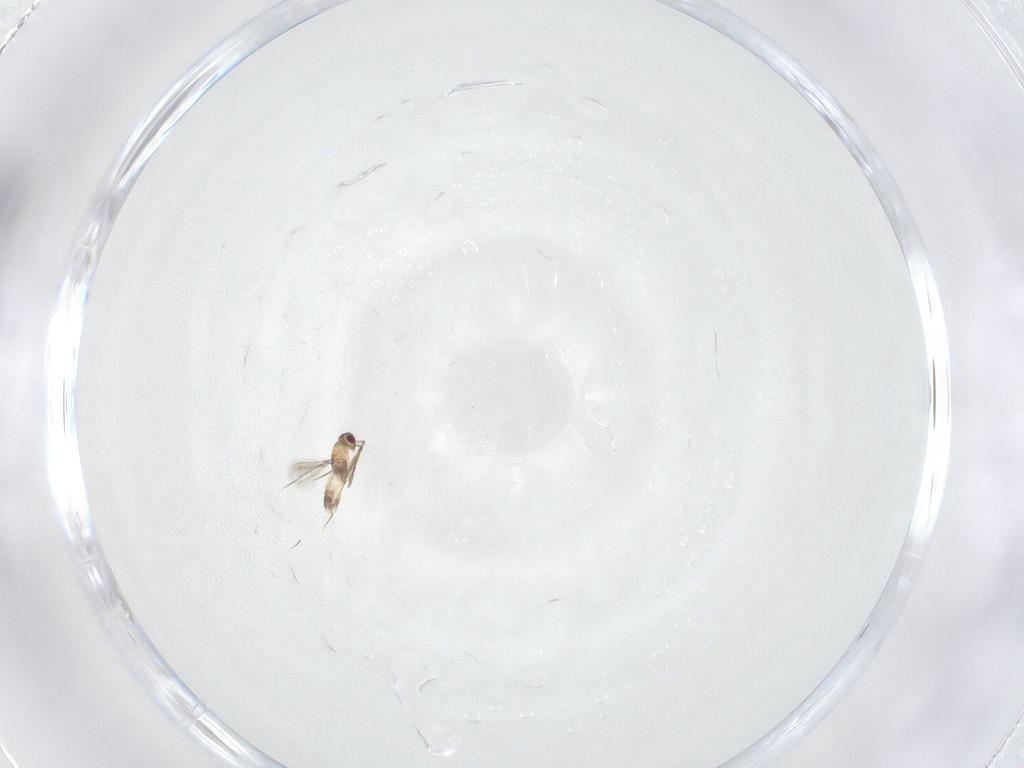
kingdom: Animalia
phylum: Arthropoda
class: Insecta
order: Hymenoptera
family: Mymaridae
